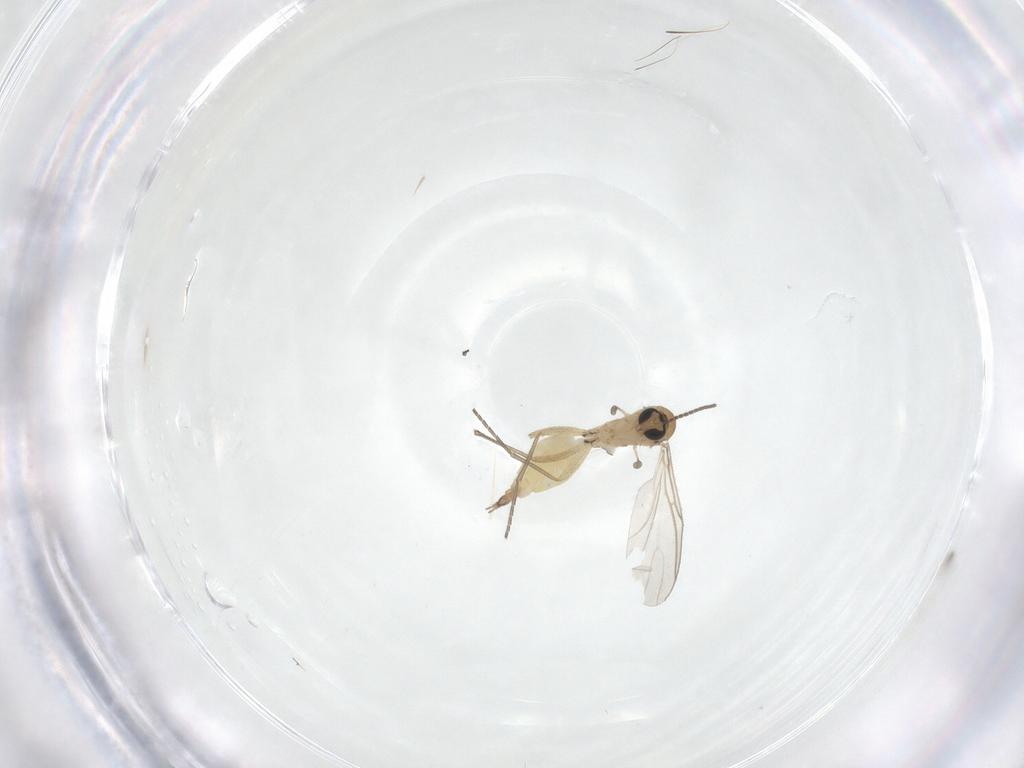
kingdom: Animalia
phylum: Arthropoda
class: Insecta
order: Diptera
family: Sciaridae
